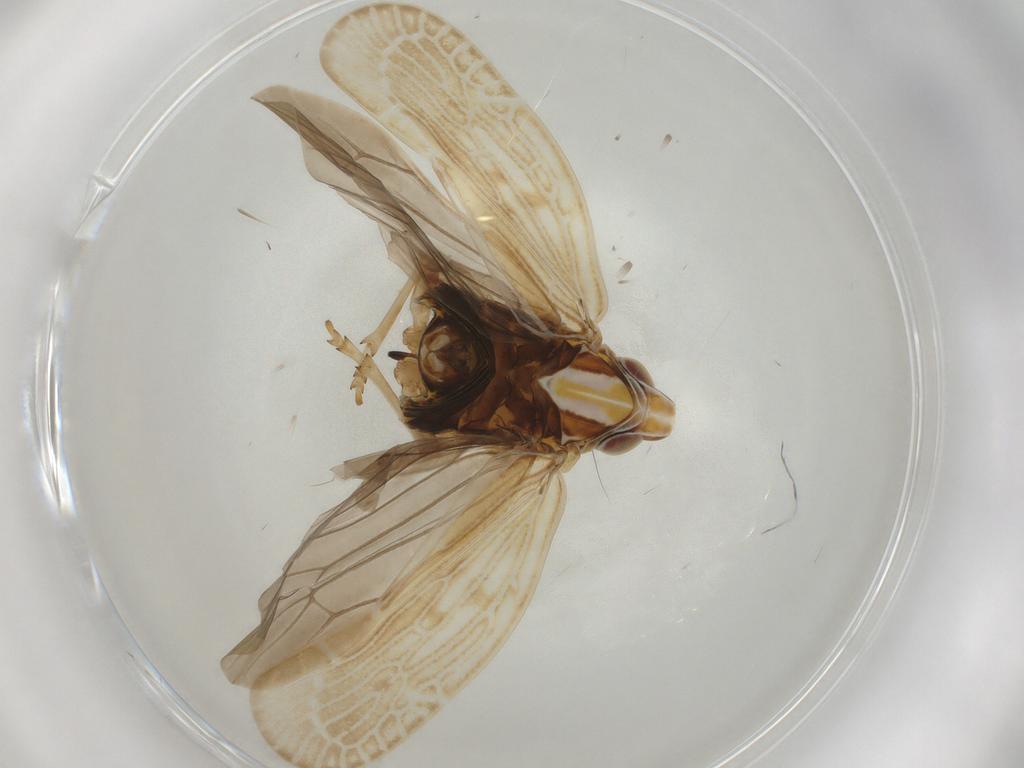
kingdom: Animalia
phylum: Arthropoda
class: Insecta
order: Hemiptera
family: Achilidae
